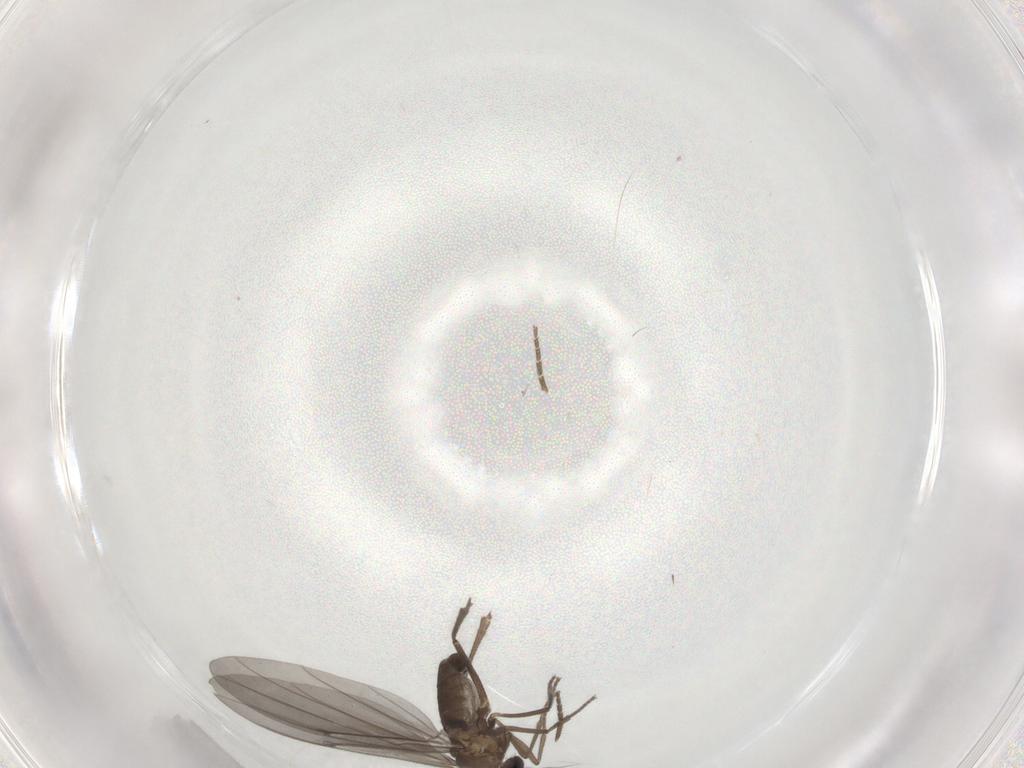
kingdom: Animalia
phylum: Arthropoda
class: Insecta
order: Diptera
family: Phoridae
